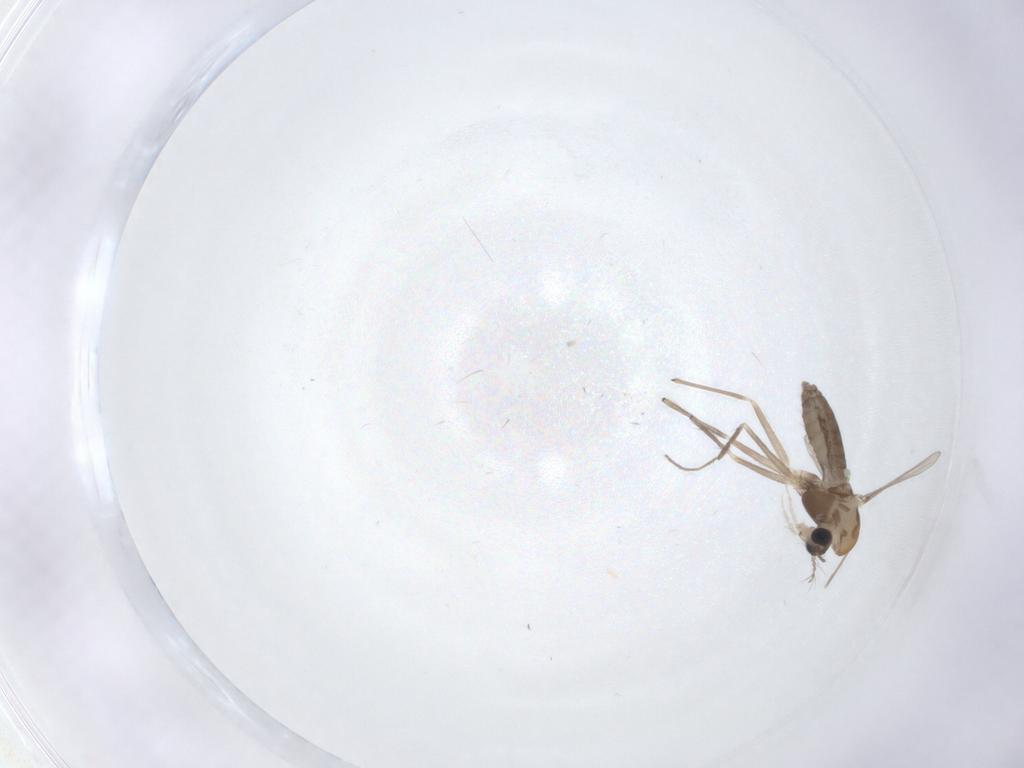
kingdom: Animalia
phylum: Arthropoda
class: Insecta
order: Diptera
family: Chironomidae
